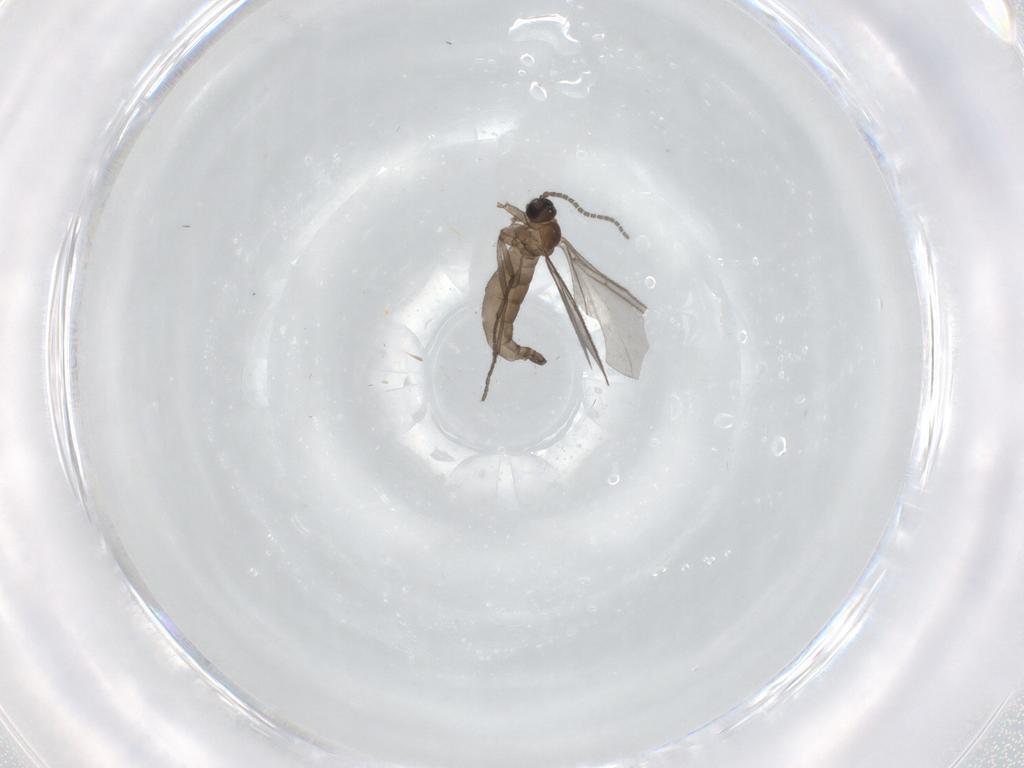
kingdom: Animalia
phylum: Arthropoda
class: Insecta
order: Diptera
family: Sciaridae
